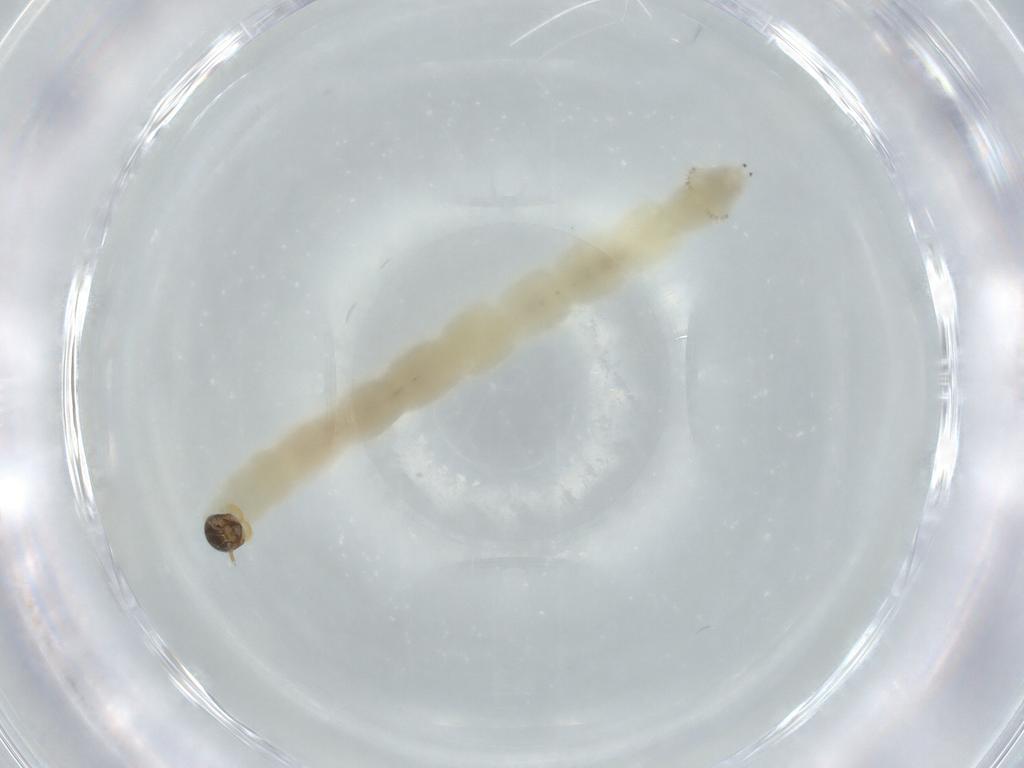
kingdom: Animalia
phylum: Arthropoda
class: Insecta
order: Diptera
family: Chironomidae
